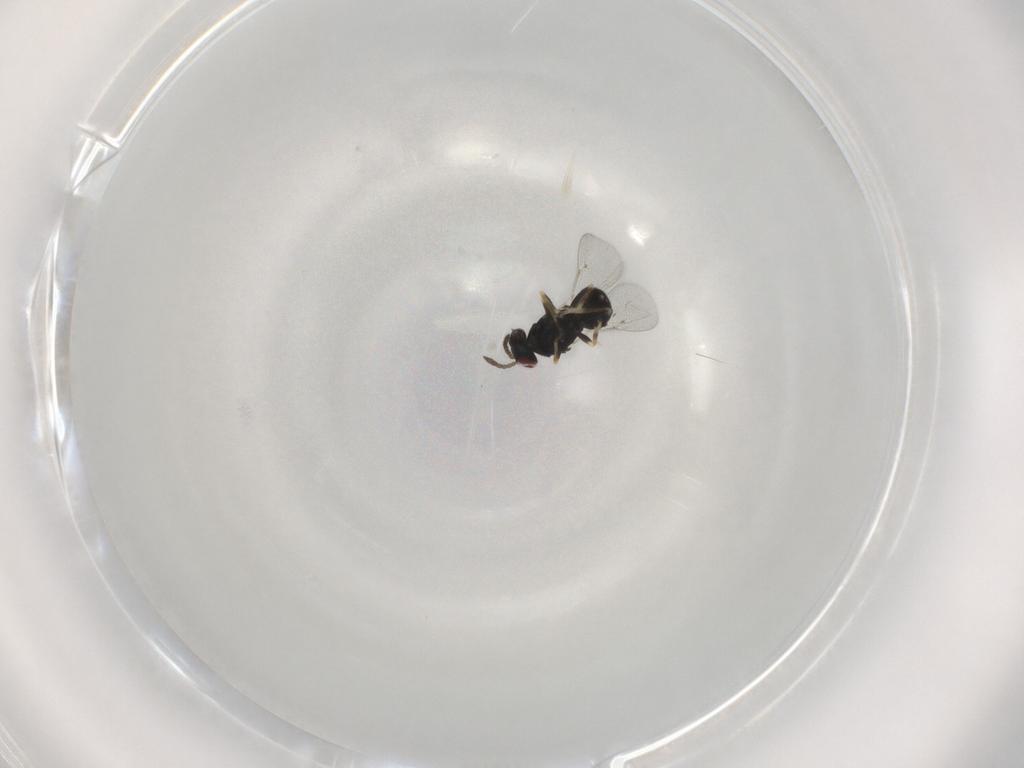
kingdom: Animalia
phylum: Arthropoda
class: Insecta
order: Hymenoptera
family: Eulophidae
